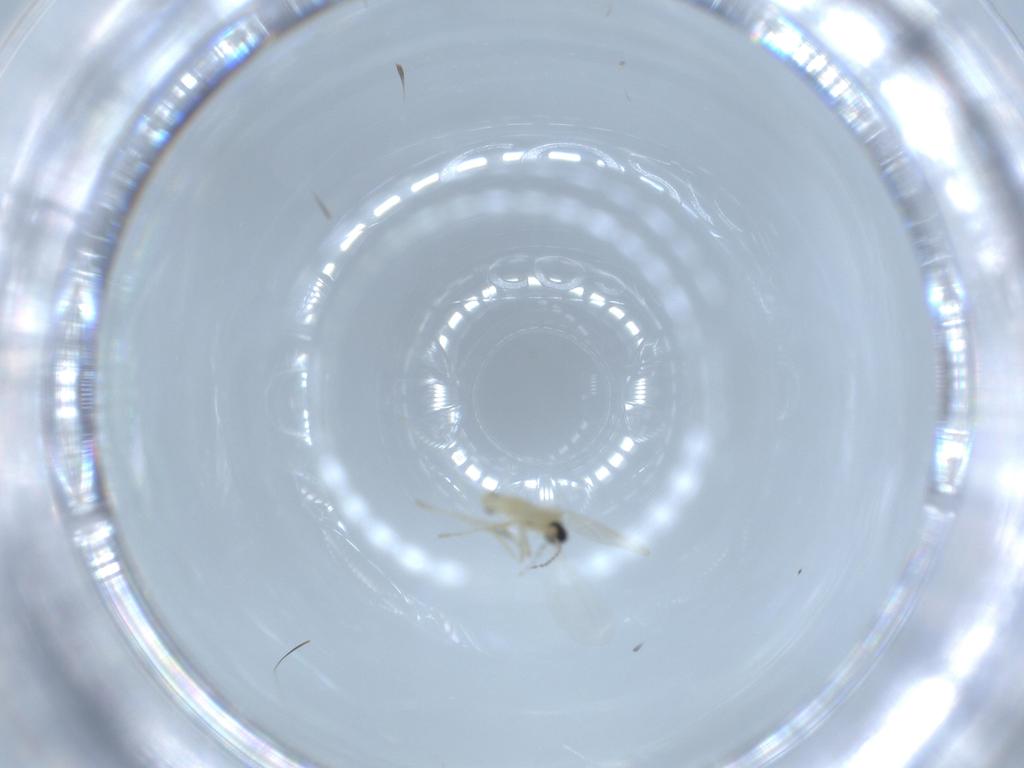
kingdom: Animalia
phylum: Arthropoda
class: Insecta
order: Diptera
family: Cecidomyiidae
